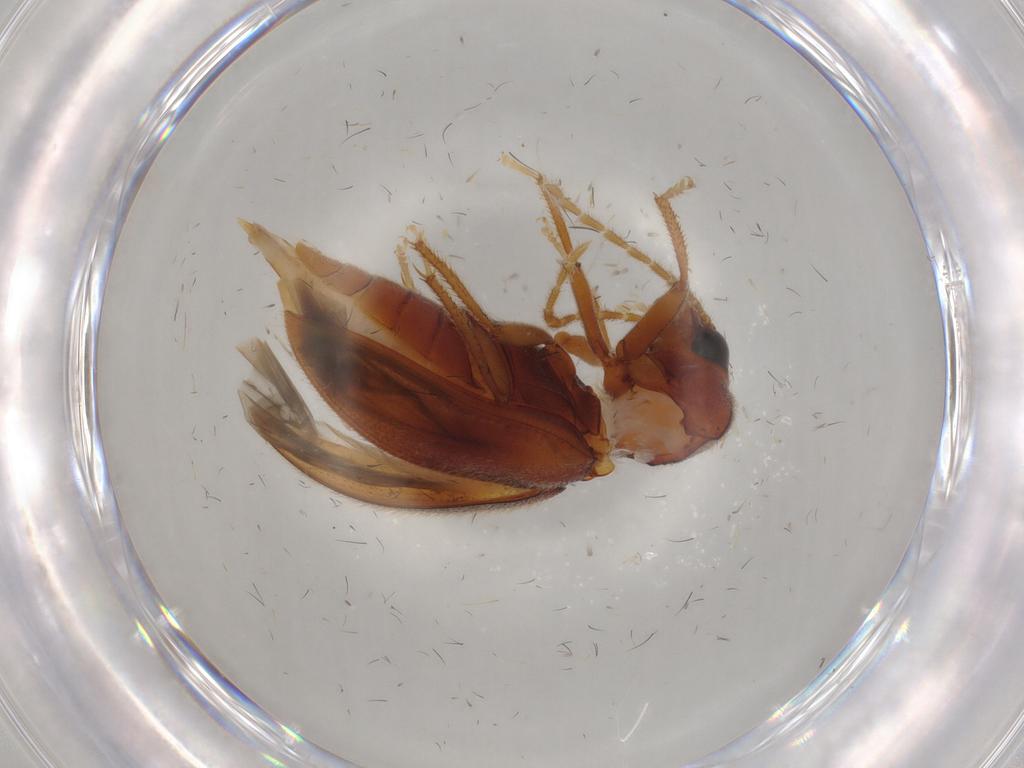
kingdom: Animalia
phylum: Arthropoda
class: Insecta
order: Coleoptera
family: Ptilodactylidae
